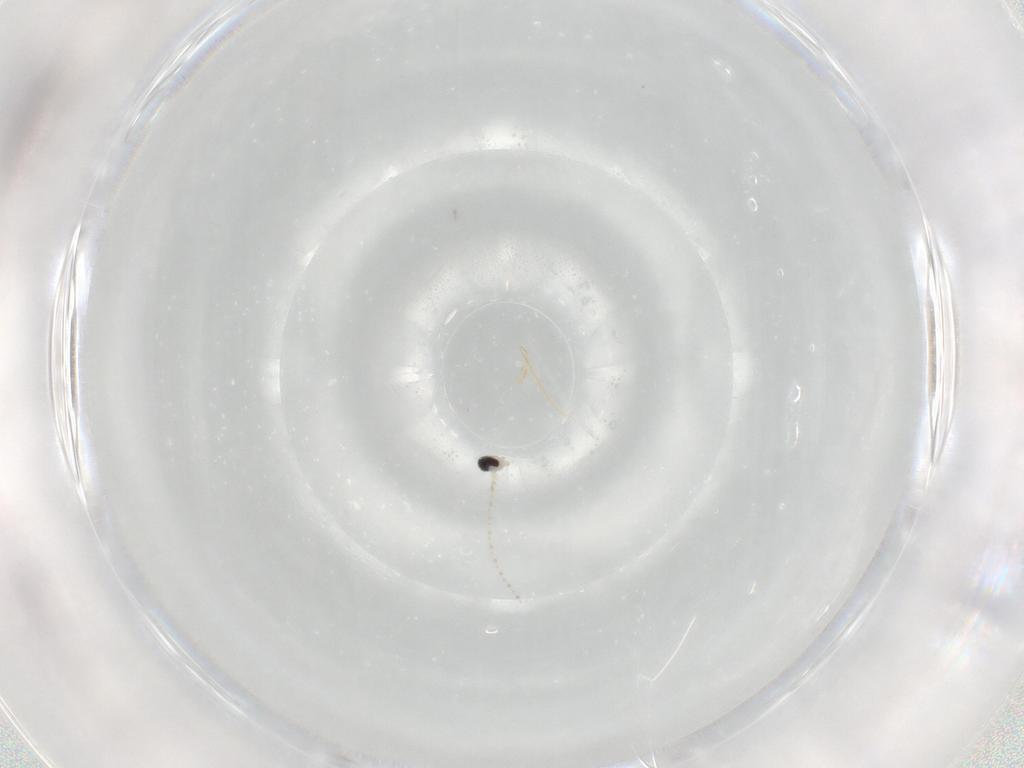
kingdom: Animalia
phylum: Arthropoda
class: Insecta
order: Diptera
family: Cecidomyiidae
